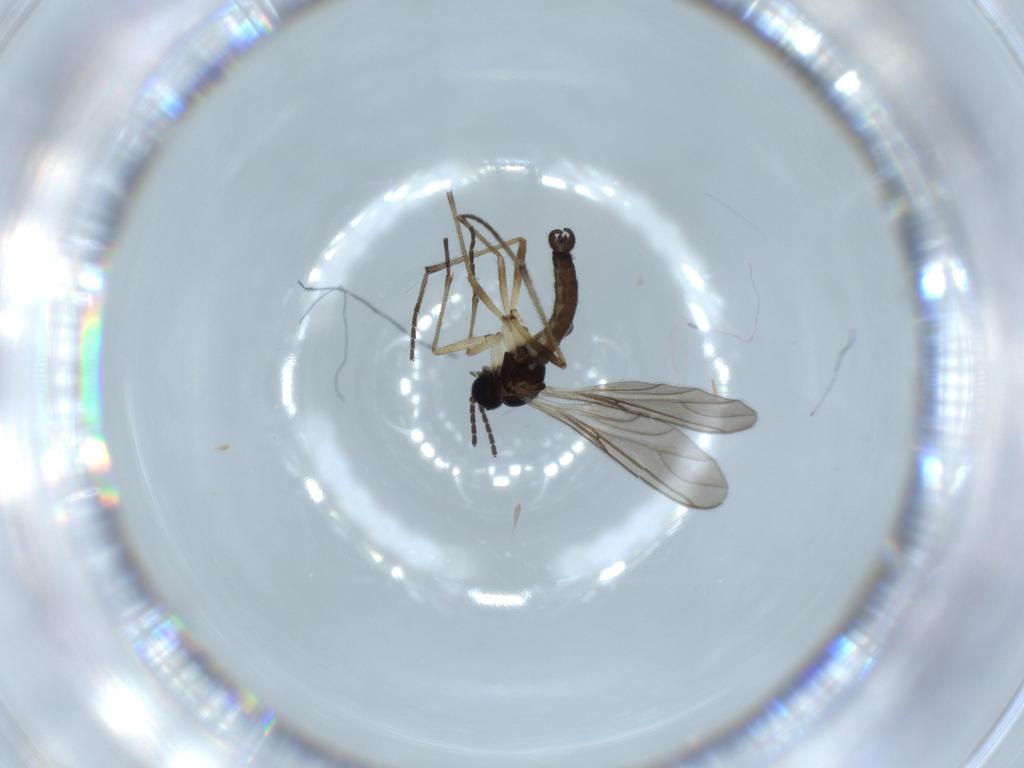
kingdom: Animalia
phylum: Arthropoda
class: Insecta
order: Diptera
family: Sciaridae
